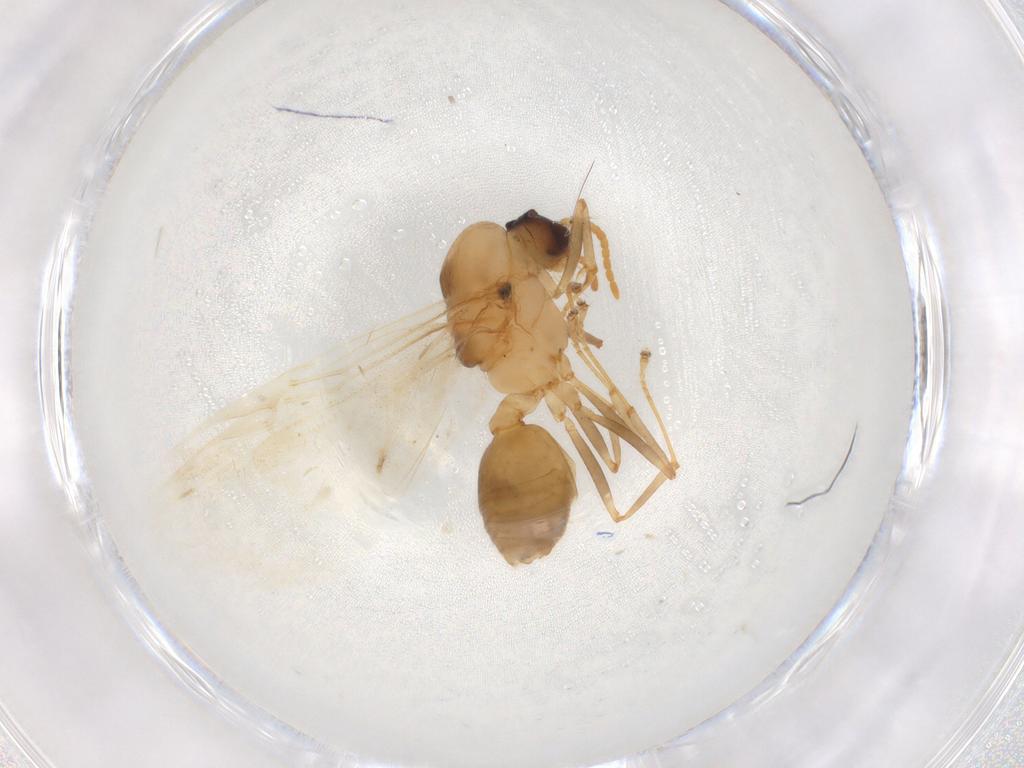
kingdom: Animalia
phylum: Arthropoda
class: Insecta
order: Hymenoptera
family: Formicidae
